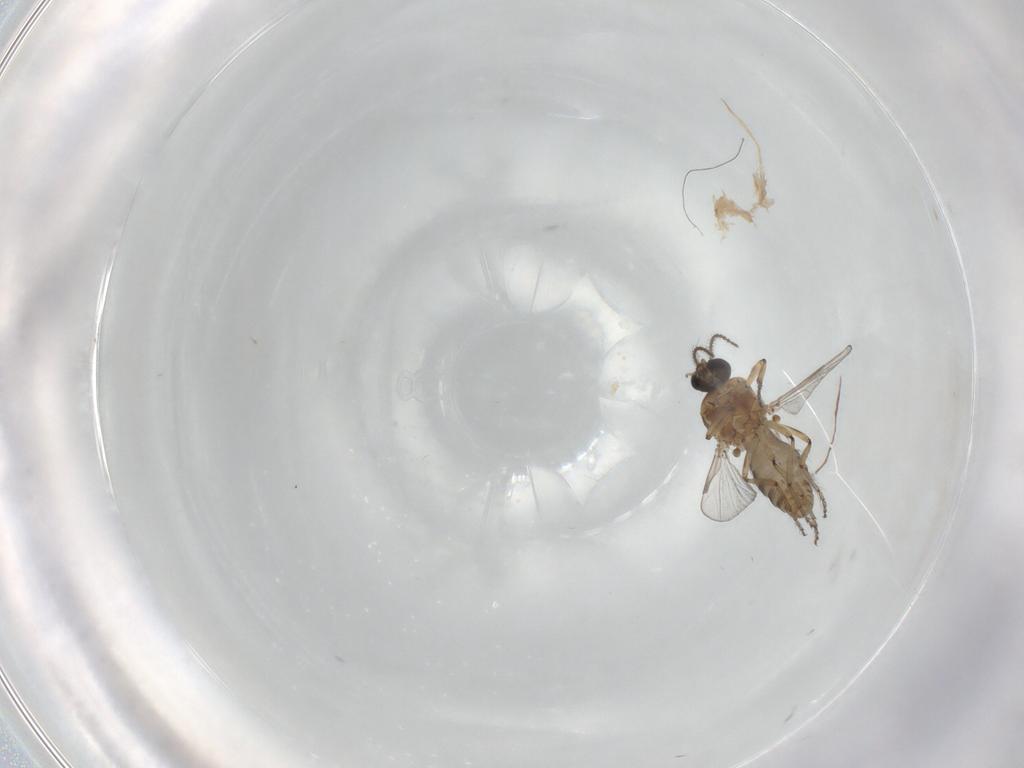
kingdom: Animalia
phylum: Arthropoda
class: Insecta
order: Diptera
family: Ceratopogonidae
